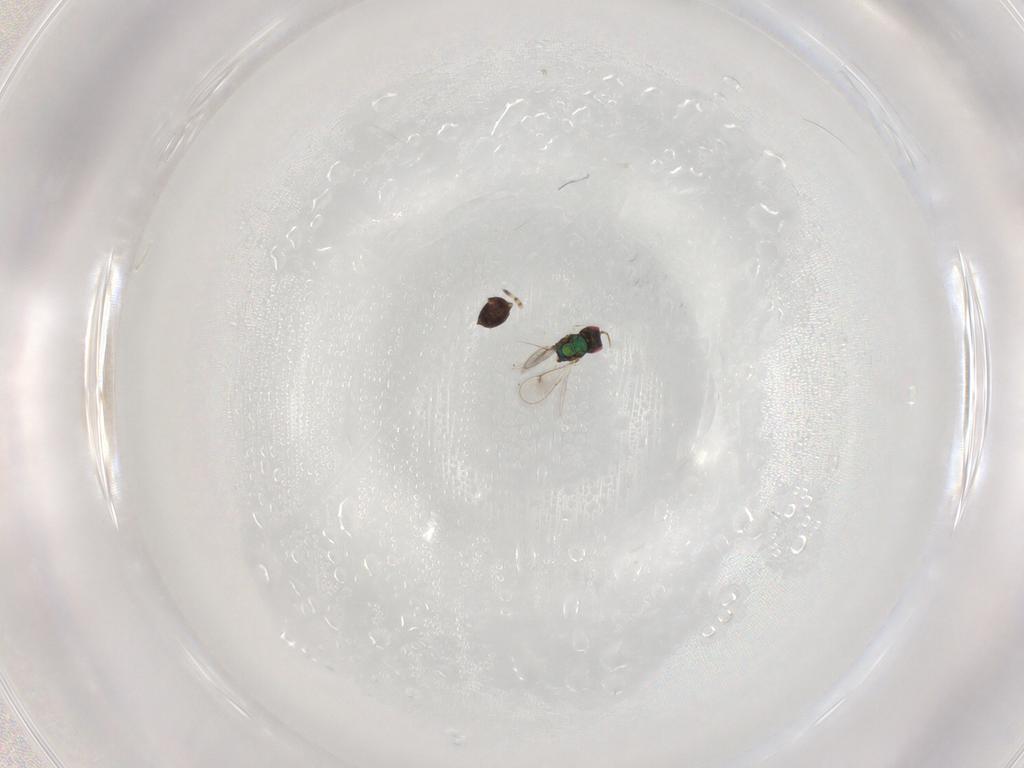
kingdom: Animalia
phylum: Arthropoda
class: Insecta
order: Hymenoptera
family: Eulophidae
